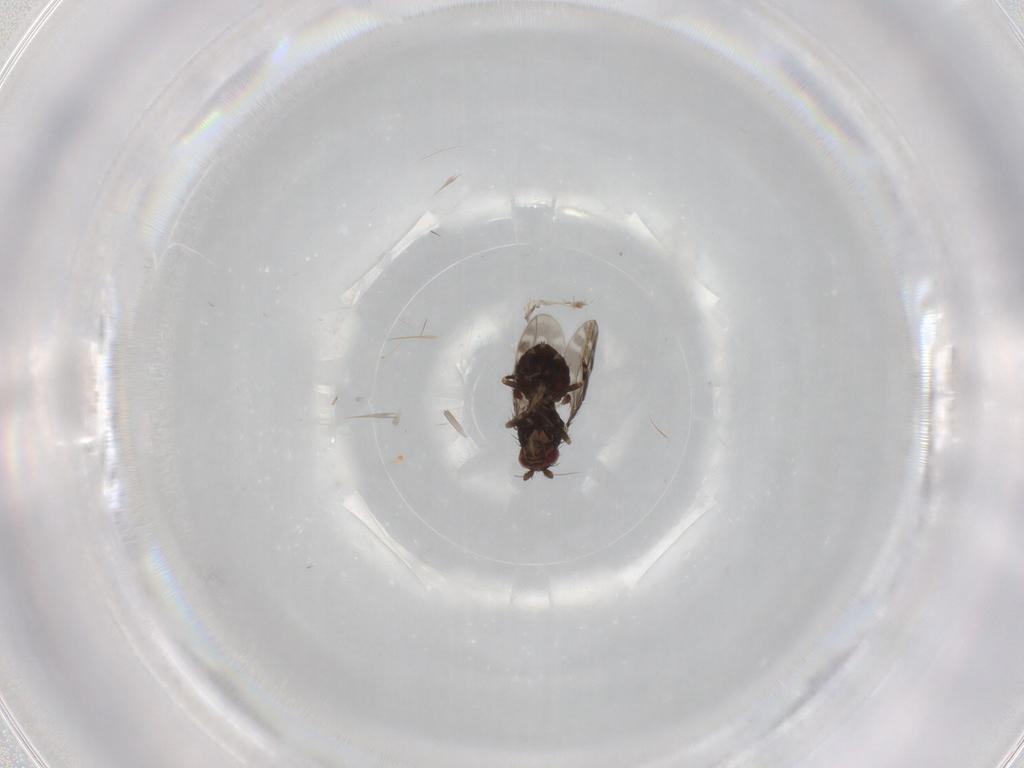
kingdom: Animalia
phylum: Arthropoda
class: Insecta
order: Diptera
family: Sphaeroceridae
